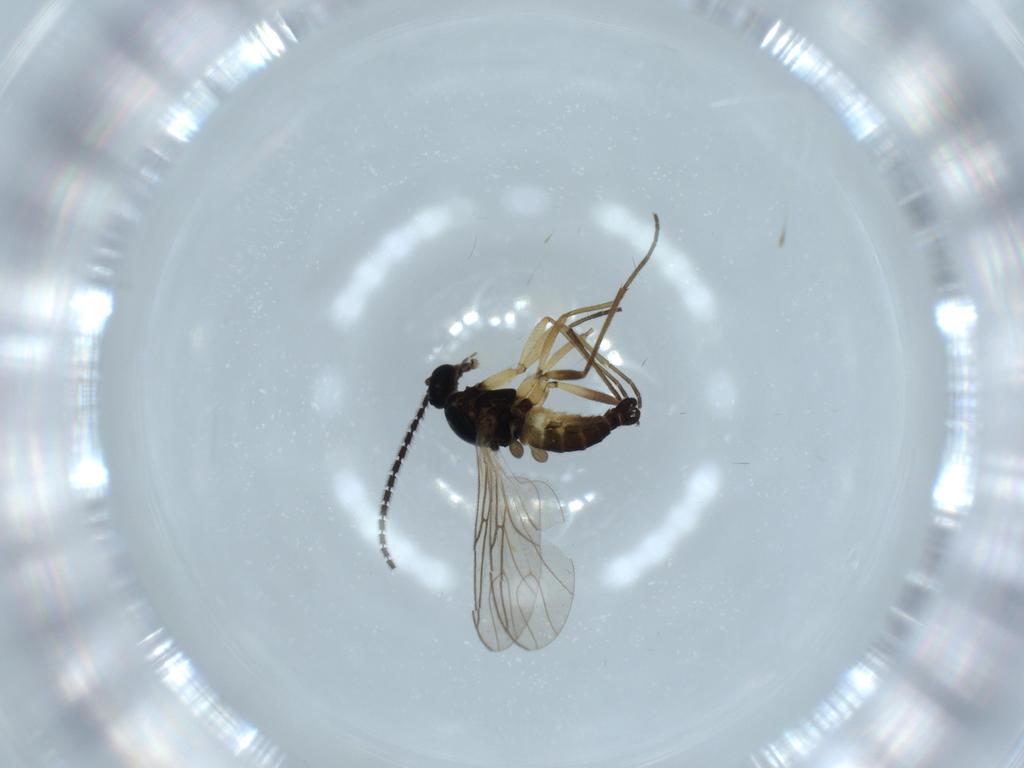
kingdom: Animalia
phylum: Arthropoda
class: Insecta
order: Diptera
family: Sciaridae
